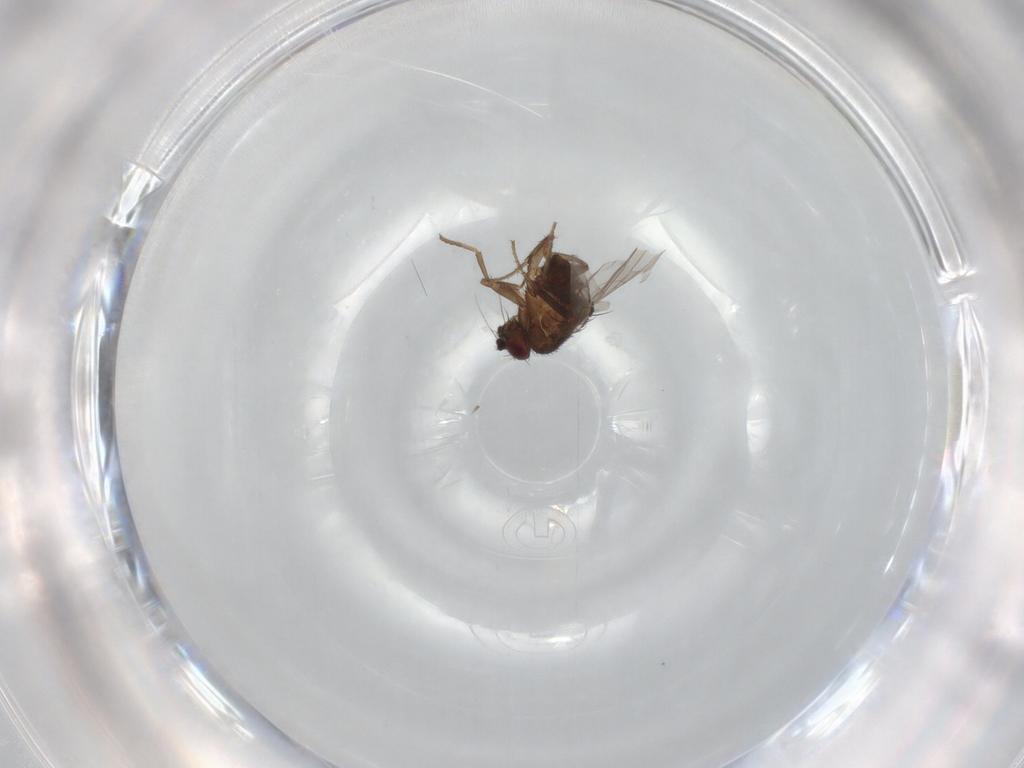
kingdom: Animalia
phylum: Arthropoda
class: Insecta
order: Diptera
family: Sphaeroceridae
